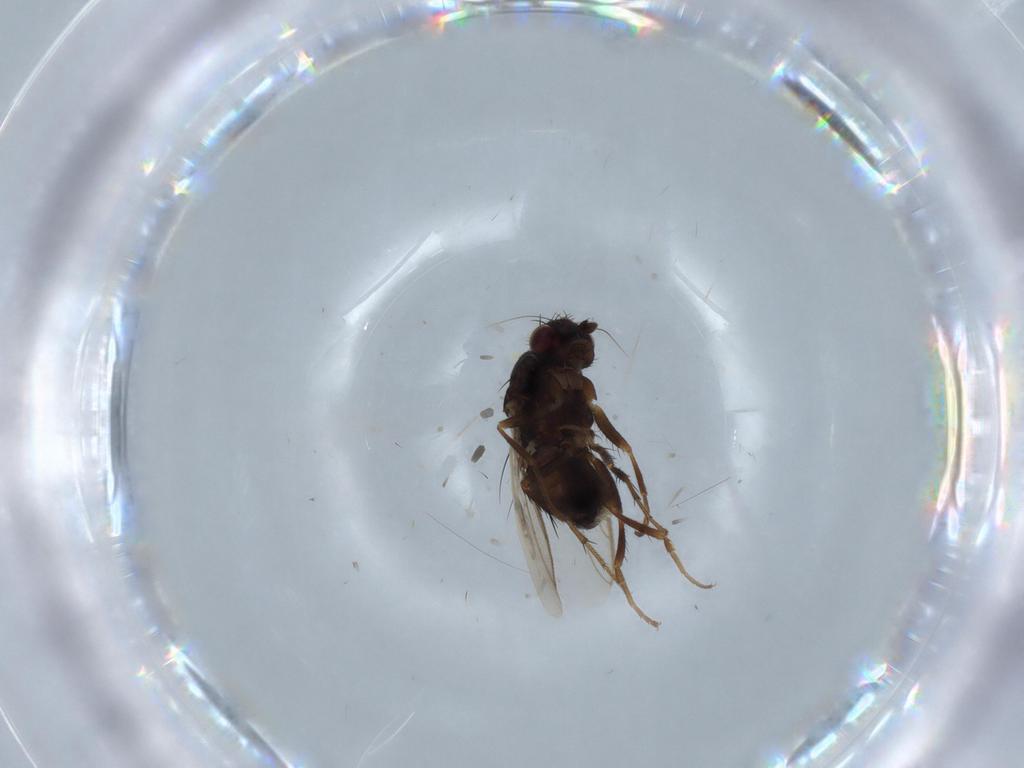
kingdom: Animalia
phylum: Arthropoda
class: Insecta
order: Diptera
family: Sphaeroceridae
